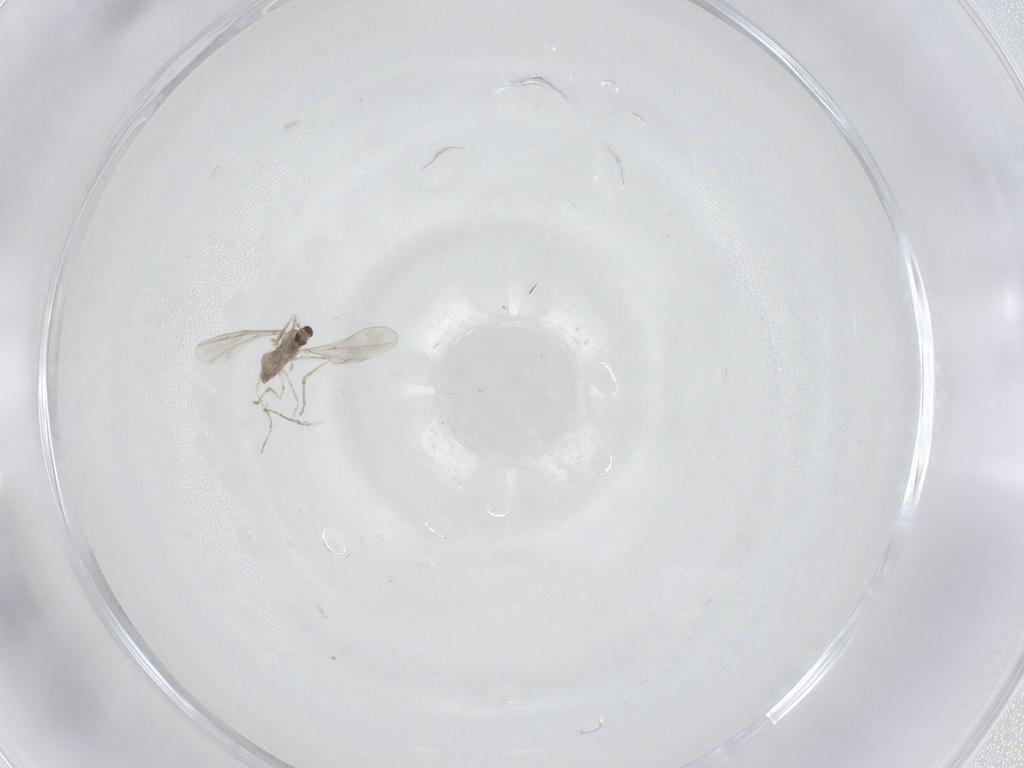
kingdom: Animalia
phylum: Arthropoda
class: Insecta
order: Diptera
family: Cecidomyiidae
